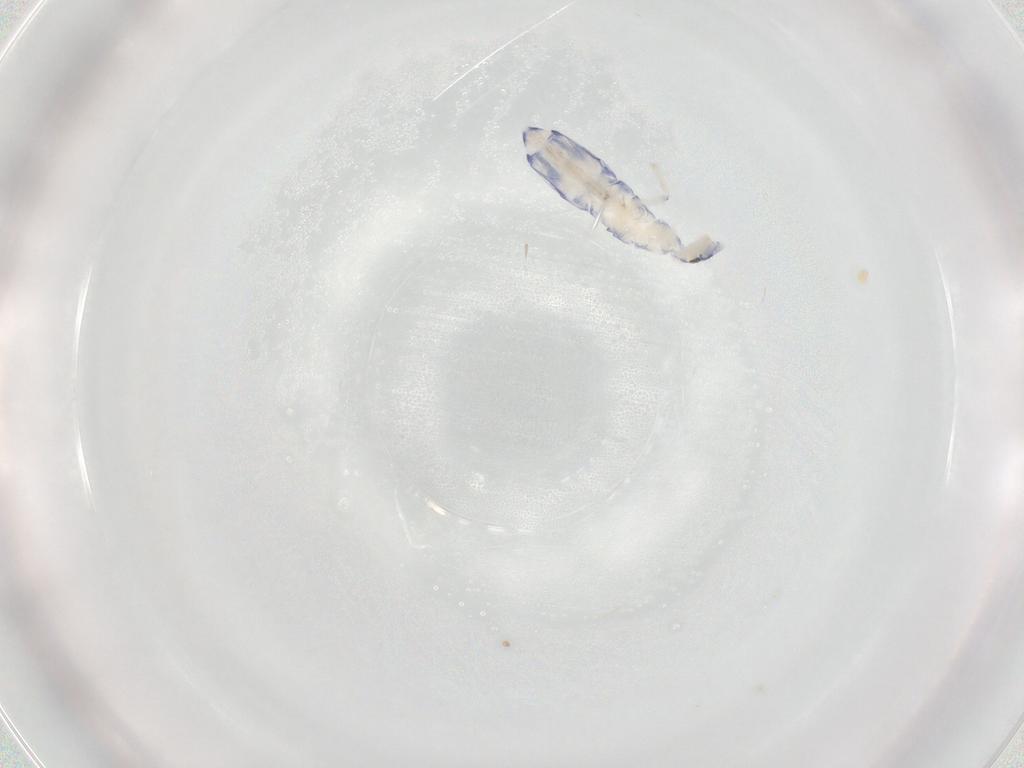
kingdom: Animalia
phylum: Arthropoda
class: Collembola
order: Entomobryomorpha
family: Entomobryidae
